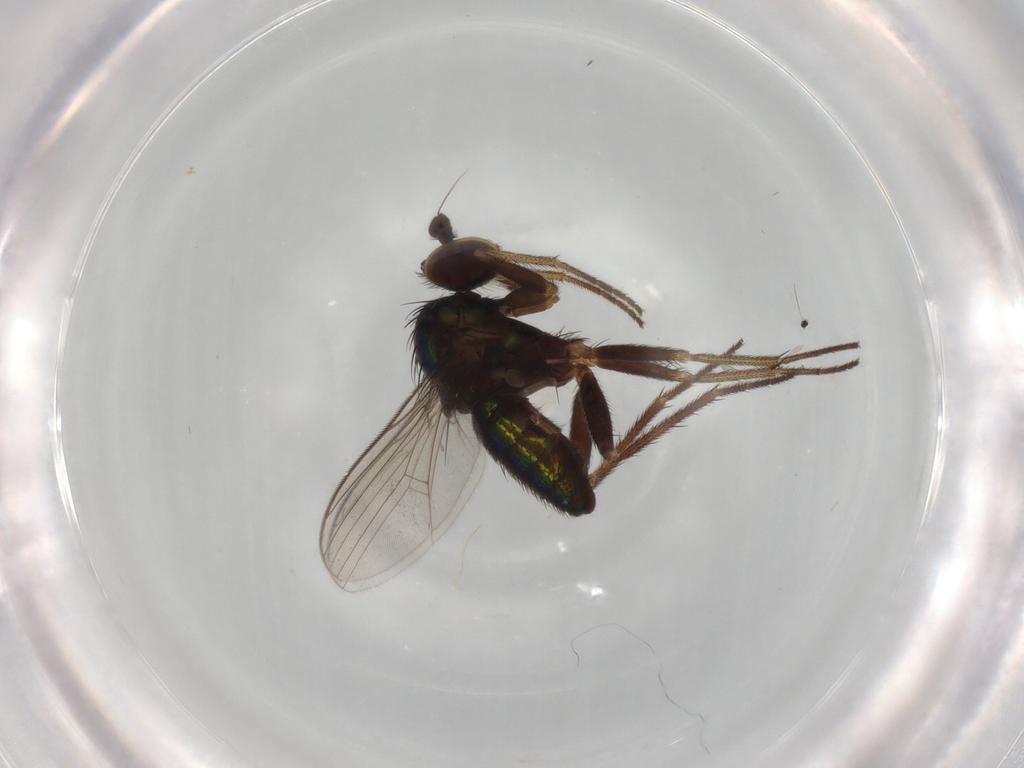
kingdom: Animalia
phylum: Arthropoda
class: Insecta
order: Diptera
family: Dolichopodidae
